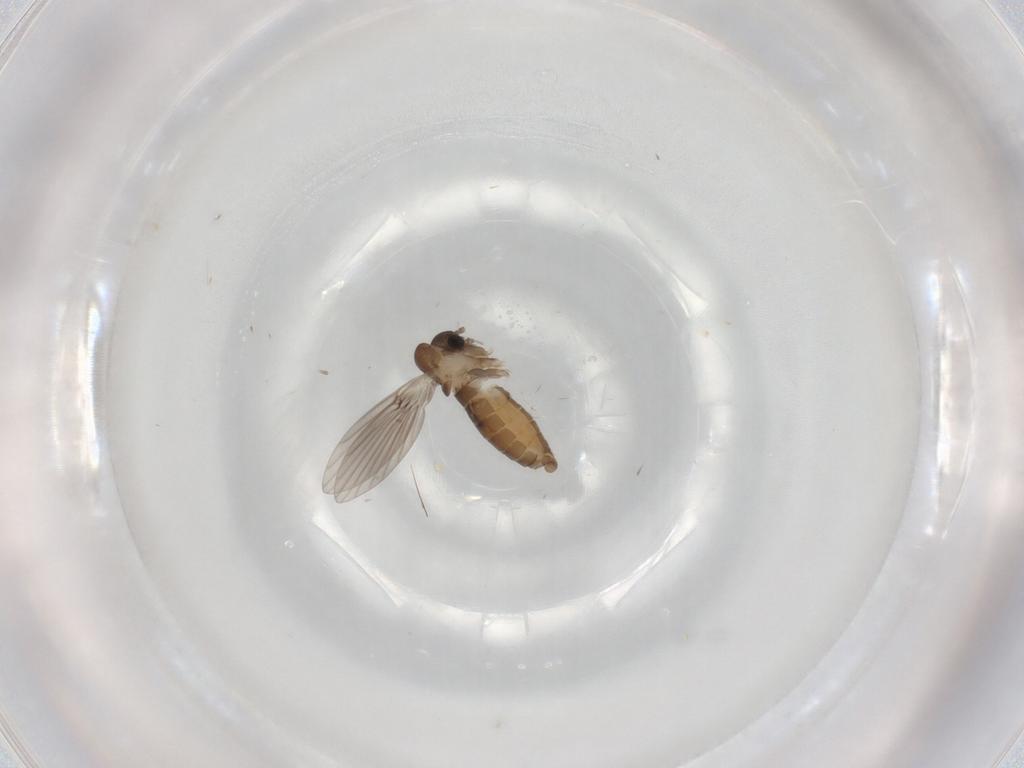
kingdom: Animalia
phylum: Arthropoda
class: Insecta
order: Diptera
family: Psychodidae
